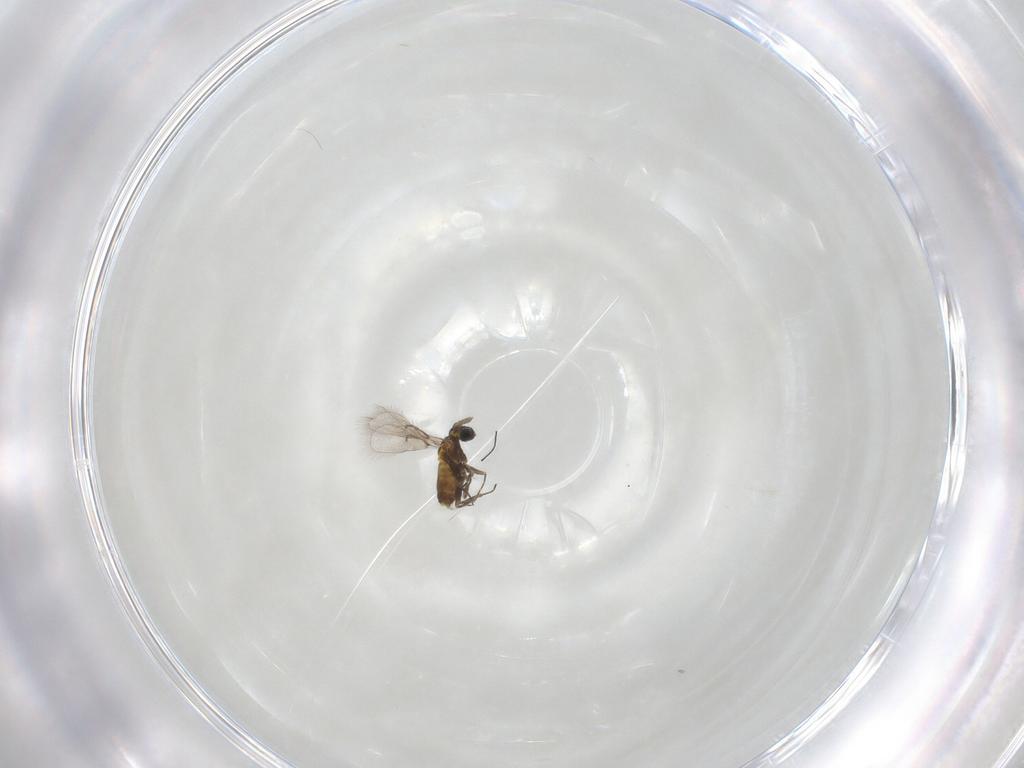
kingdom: Animalia
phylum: Arthropoda
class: Insecta
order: Hymenoptera
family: Trichogrammatidae
